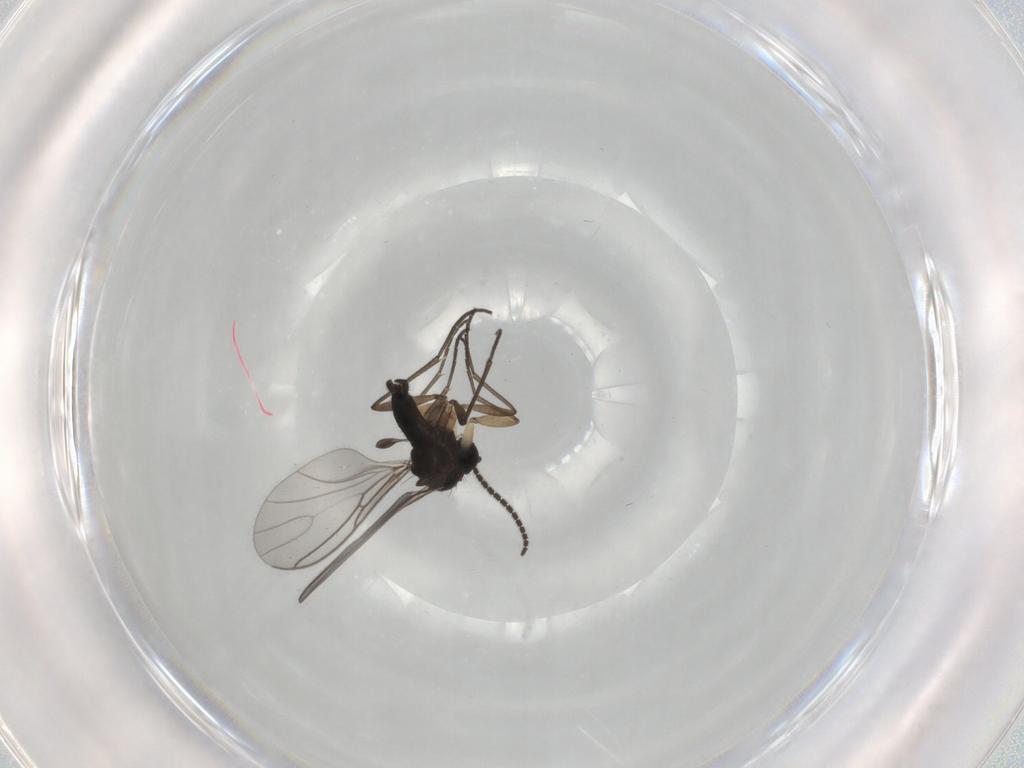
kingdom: Animalia
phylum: Arthropoda
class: Insecta
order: Diptera
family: Sciaridae
